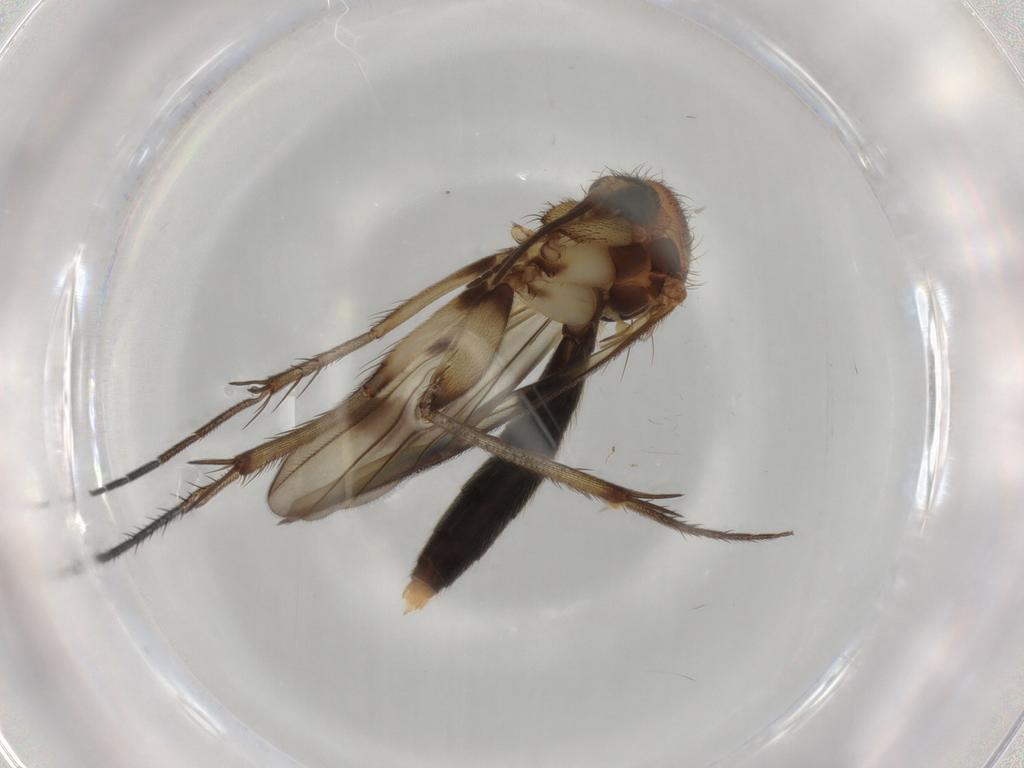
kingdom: Animalia
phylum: Arthropoda
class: Insecta
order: Diptera
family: Mycetophilidae
